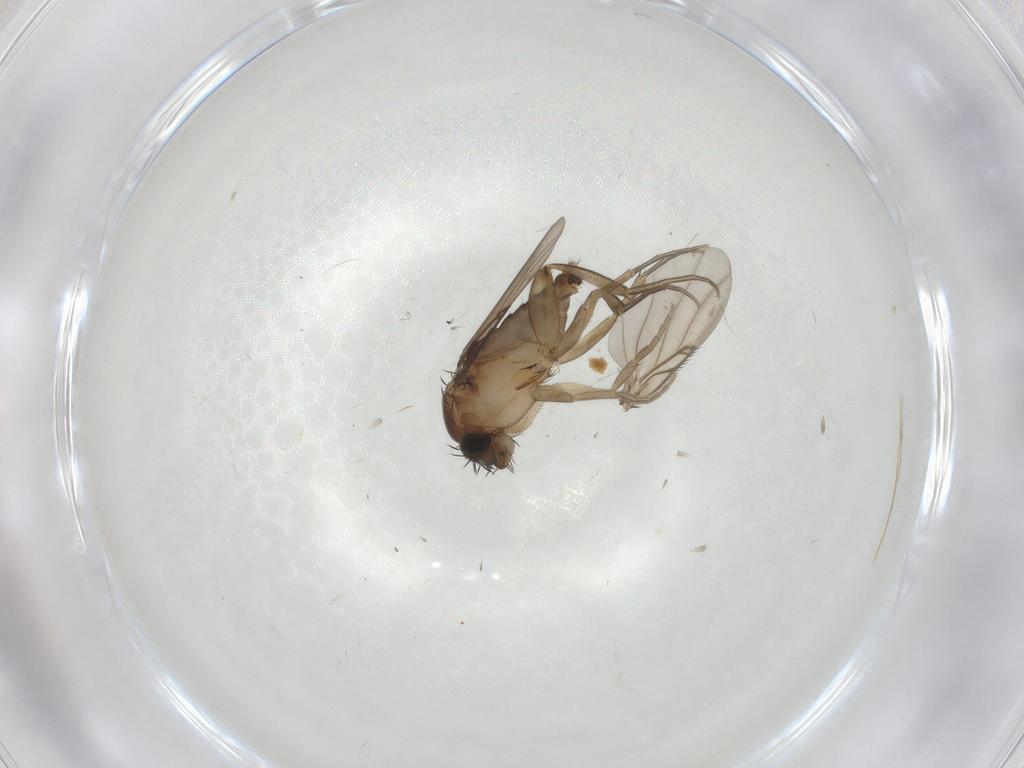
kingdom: Animalia
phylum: Arthropoda
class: Insecta
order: Diptera
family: Phoridae
